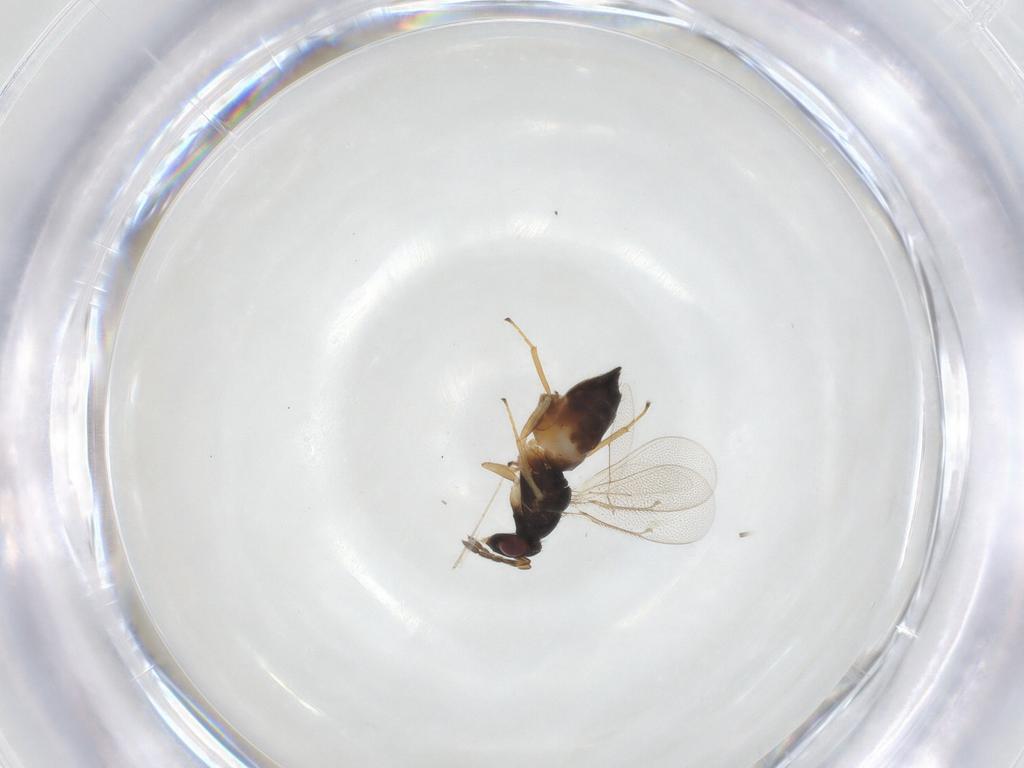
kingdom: Animalia
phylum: Arthropoda
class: Insecta
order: Hymenoptera
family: Eulophidae
